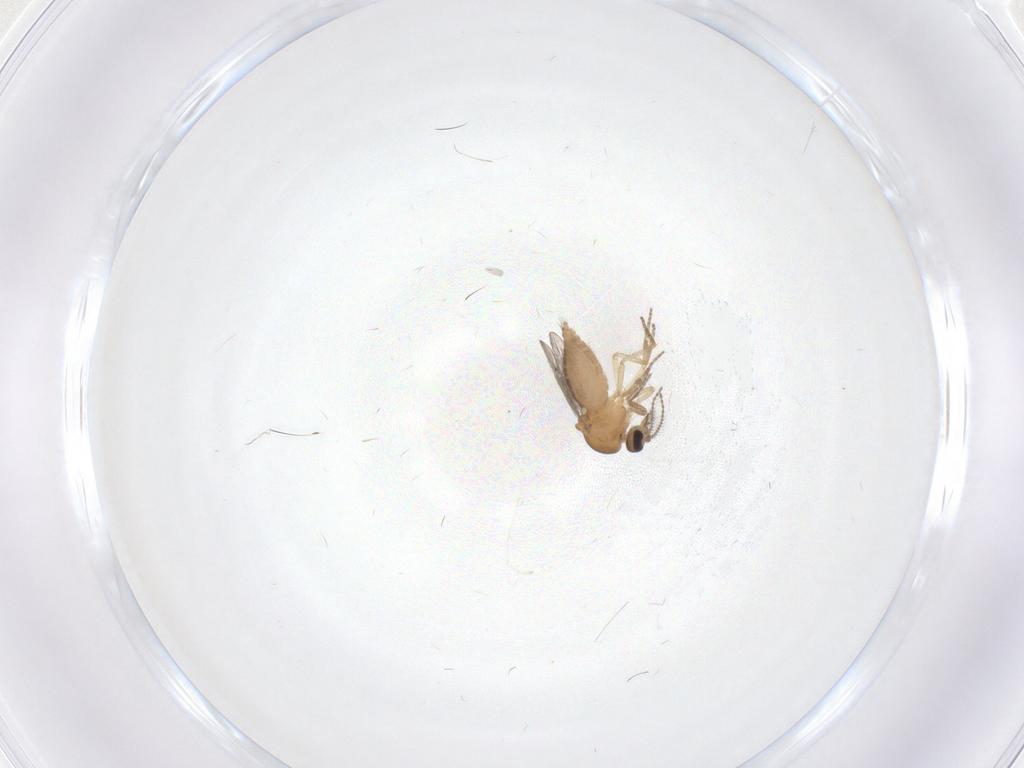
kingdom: Animalia
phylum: Arthropoda
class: Insecta
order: Diptera
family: Ceratopogonidae
